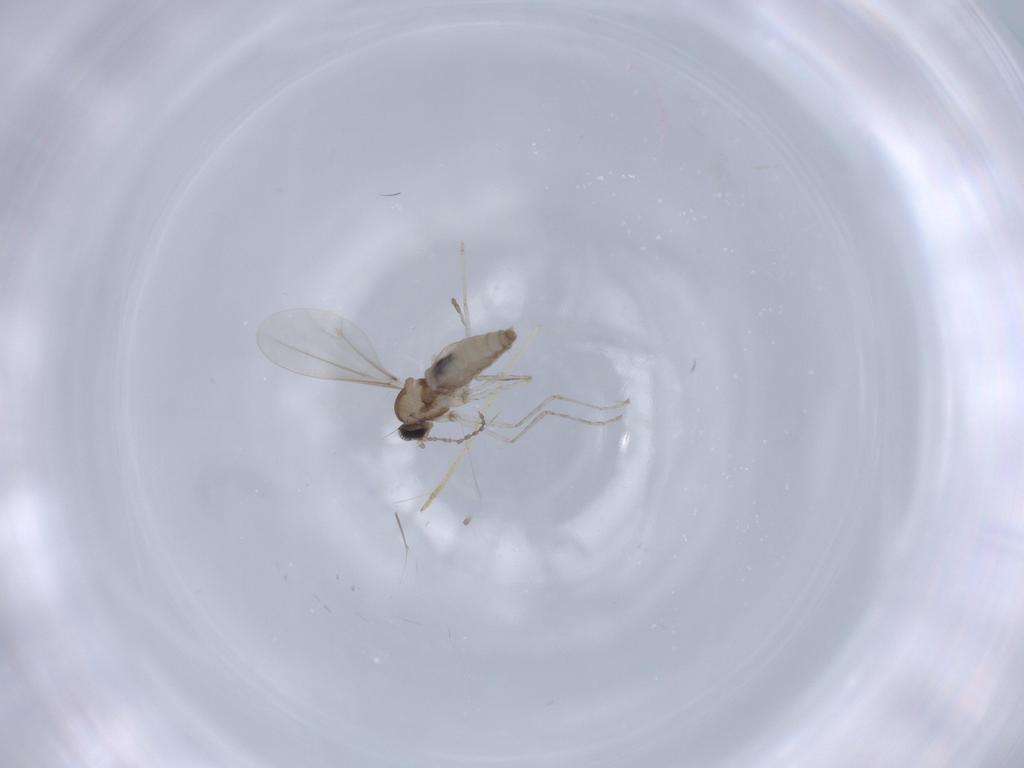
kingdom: Animalia
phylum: Arthropoda
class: Insecta
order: Diptera
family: Cecidomyiidae
